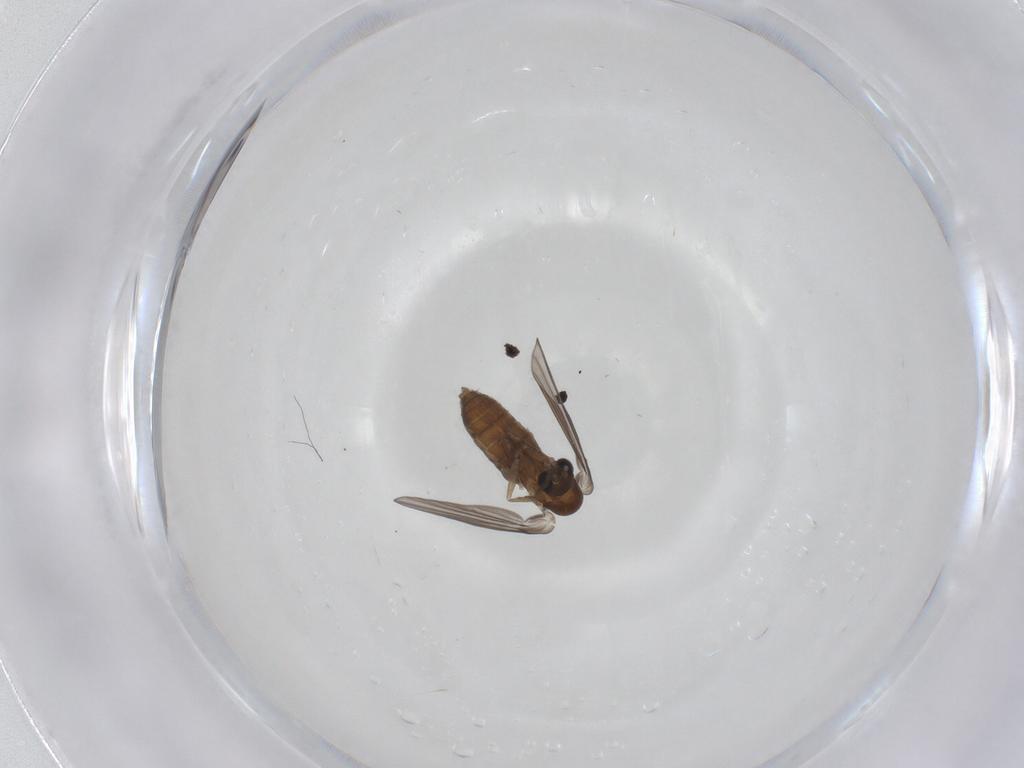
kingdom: Animalia
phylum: Arthropoda
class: Insecta
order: Diptera
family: Psychodidae
